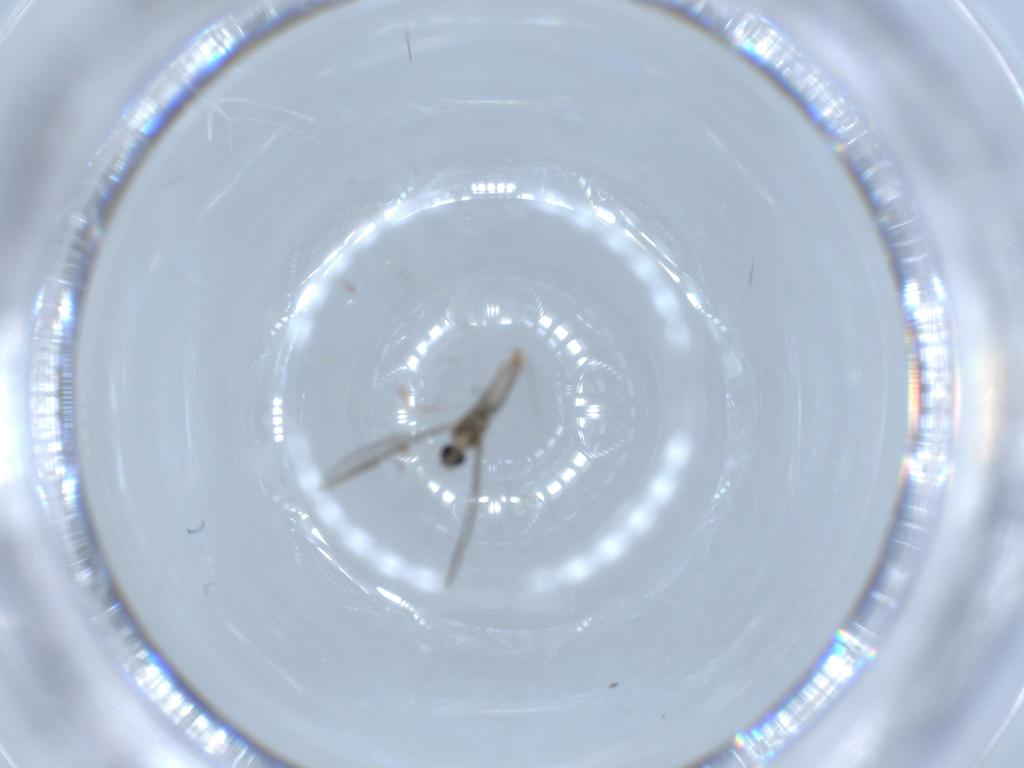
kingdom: Animalia
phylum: Arthropoda
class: Insecta
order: Diptera
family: Cecidomyiidae
